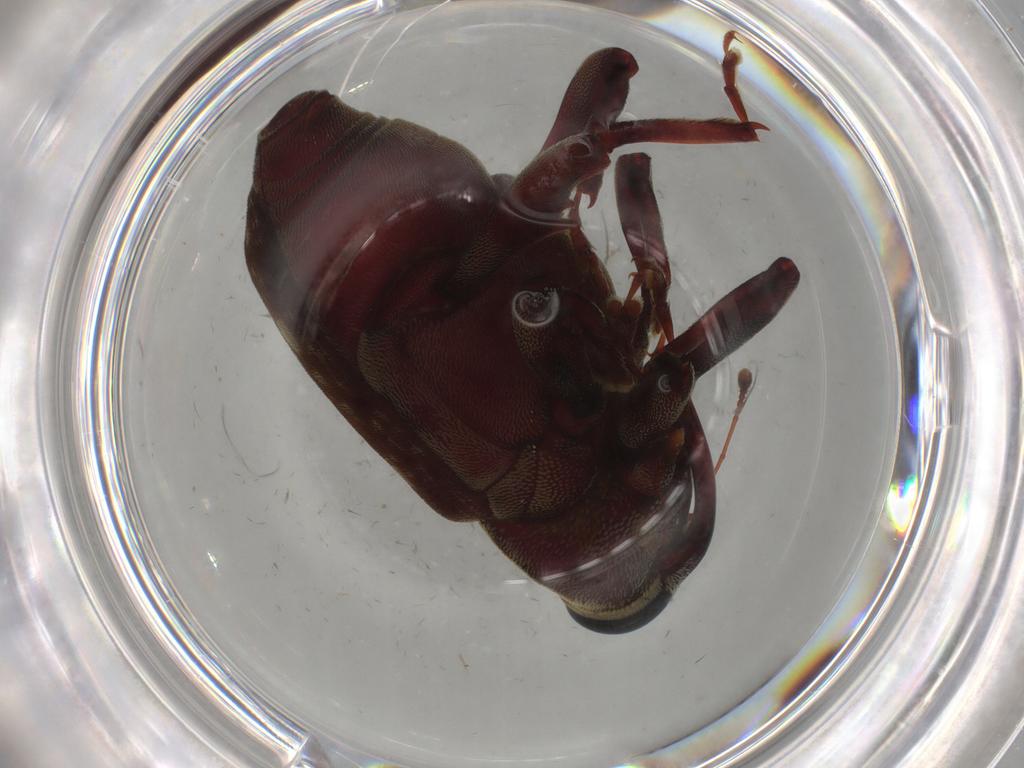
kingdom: Animalia
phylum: Arthropoda
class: Insecta
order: Coleoptera
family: Curculionidae
